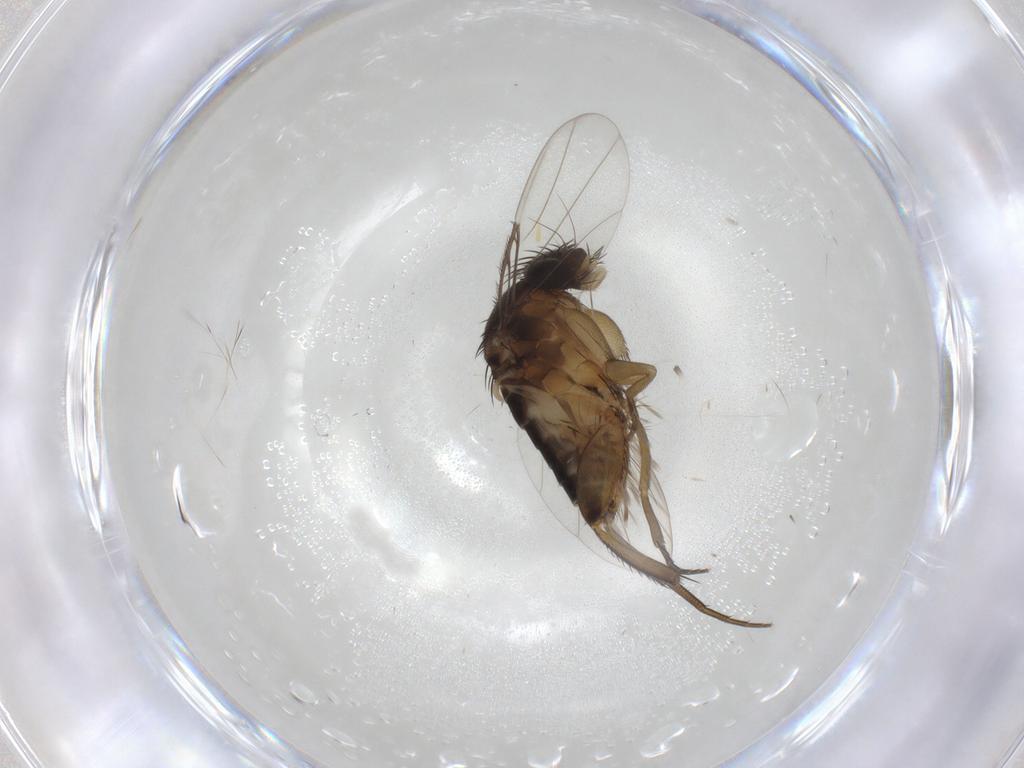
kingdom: Animalia
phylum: Arthropoda
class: Insecta
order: Diptera
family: Phoridae
